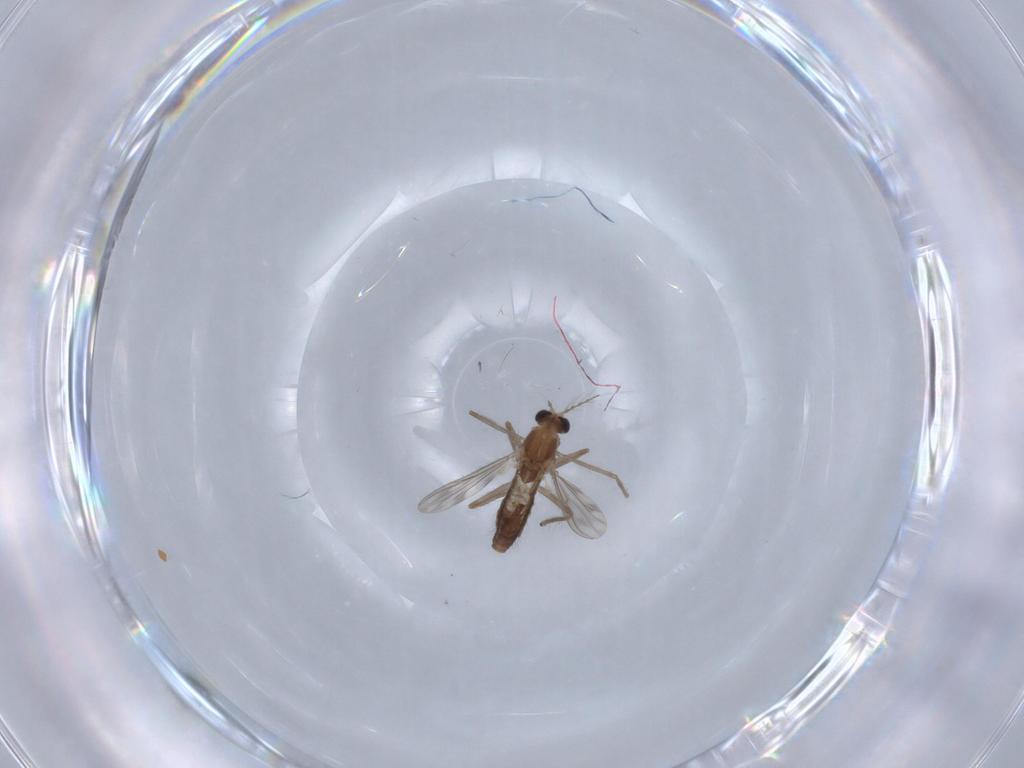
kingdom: Animalia
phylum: Arthropoda
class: Insecta
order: Diptera
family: Chironomidae
